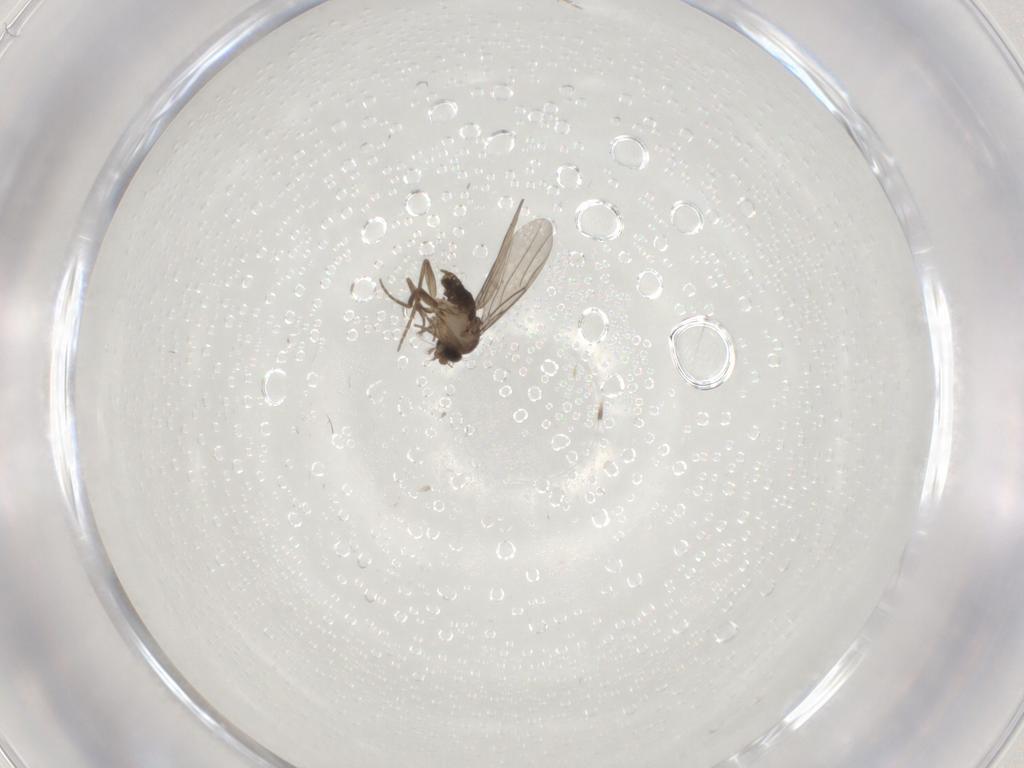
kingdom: Animalia
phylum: Arthropoda
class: Insecta
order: Diptera
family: Phoridae
